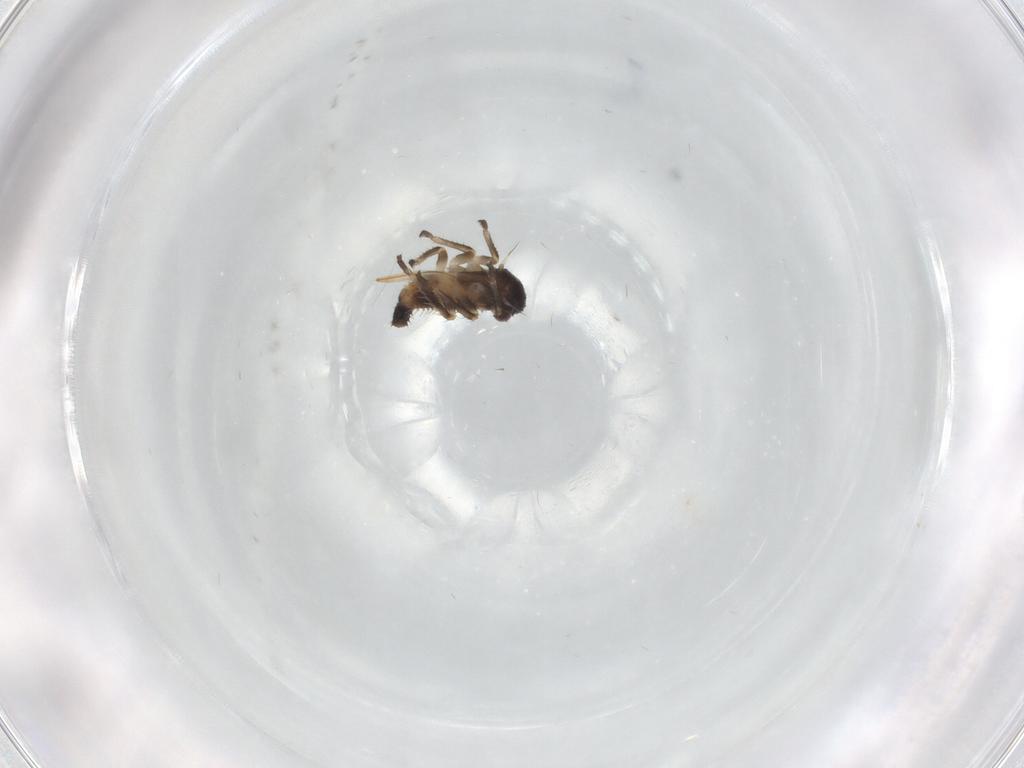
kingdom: Animalia
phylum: Arthropoda
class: Insecta
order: Hemiptera
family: Membracidae
